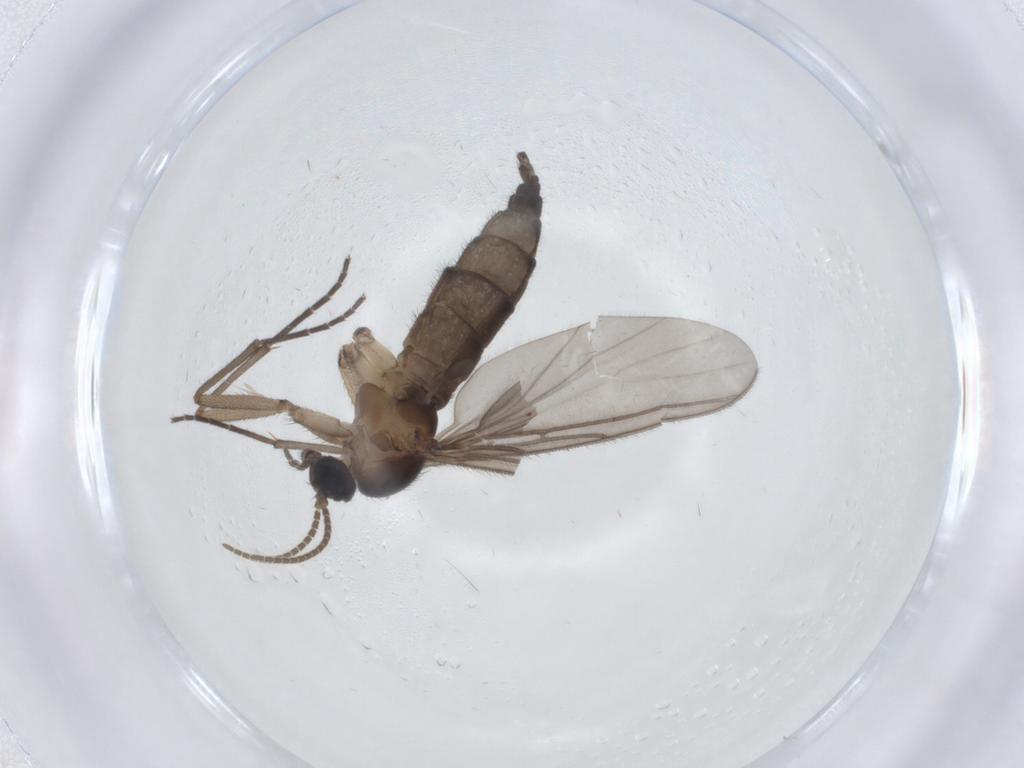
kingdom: Animalia
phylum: Arthropoda
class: Insecta
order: Diptera
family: Limoniidae
